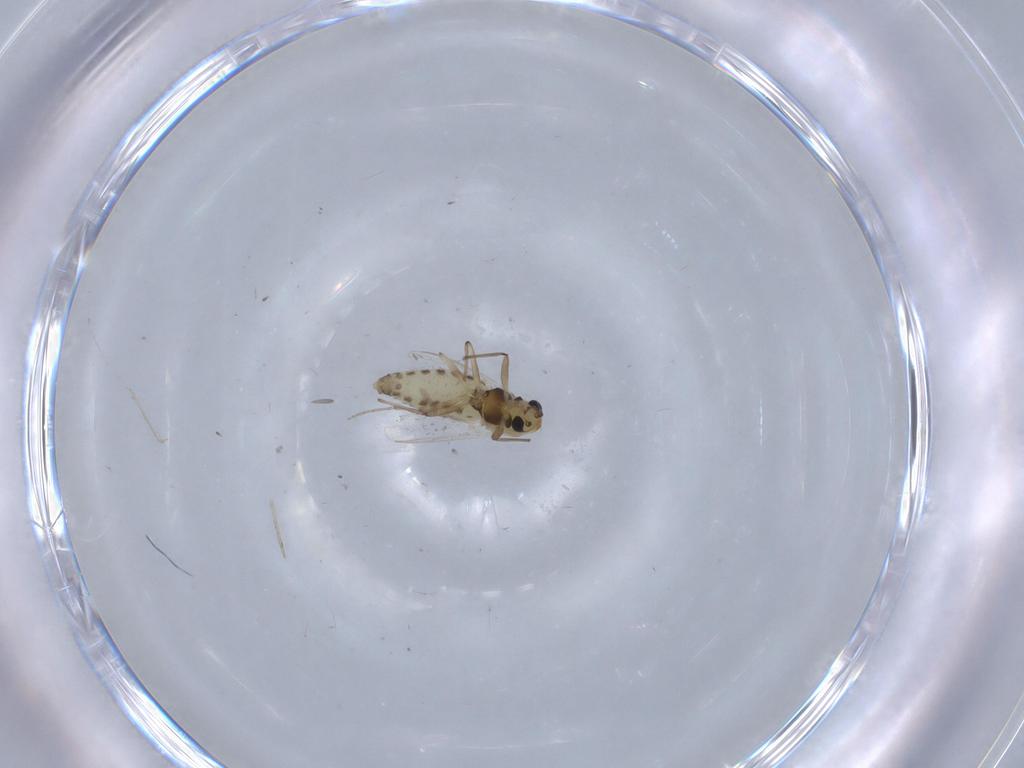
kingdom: Animalia
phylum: Arthropoda
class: Insecta
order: Diptera
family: Chironomidae
